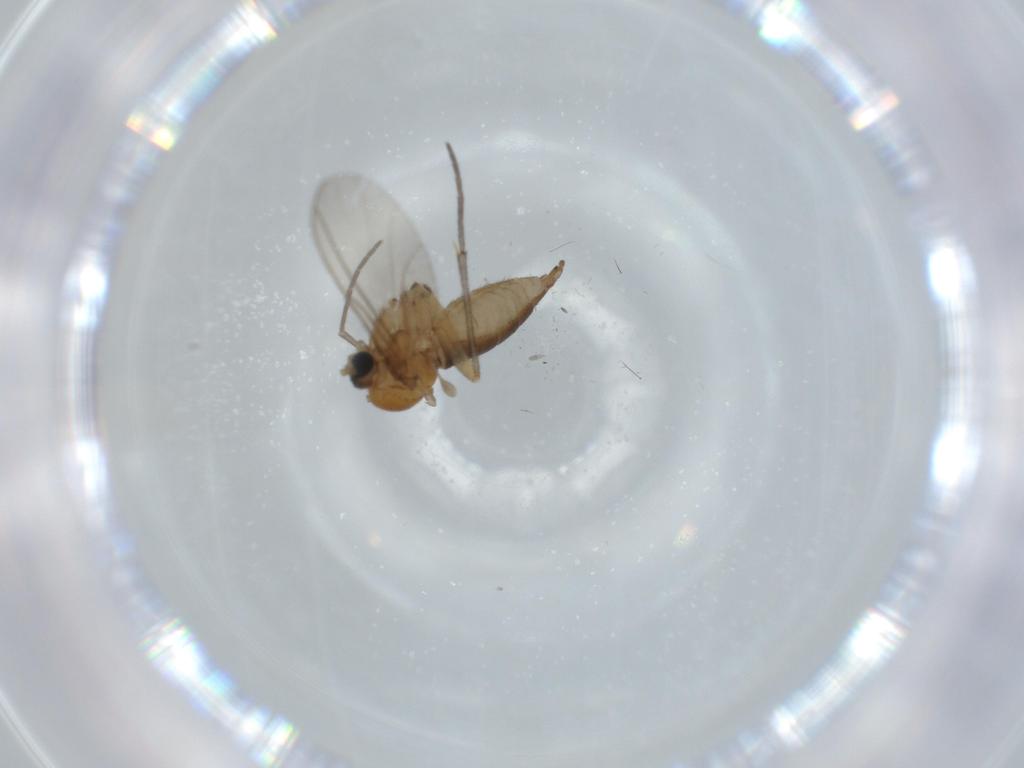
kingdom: Animalia
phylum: Arthropoda
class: Insecta
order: Diptera
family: Sciaridae
